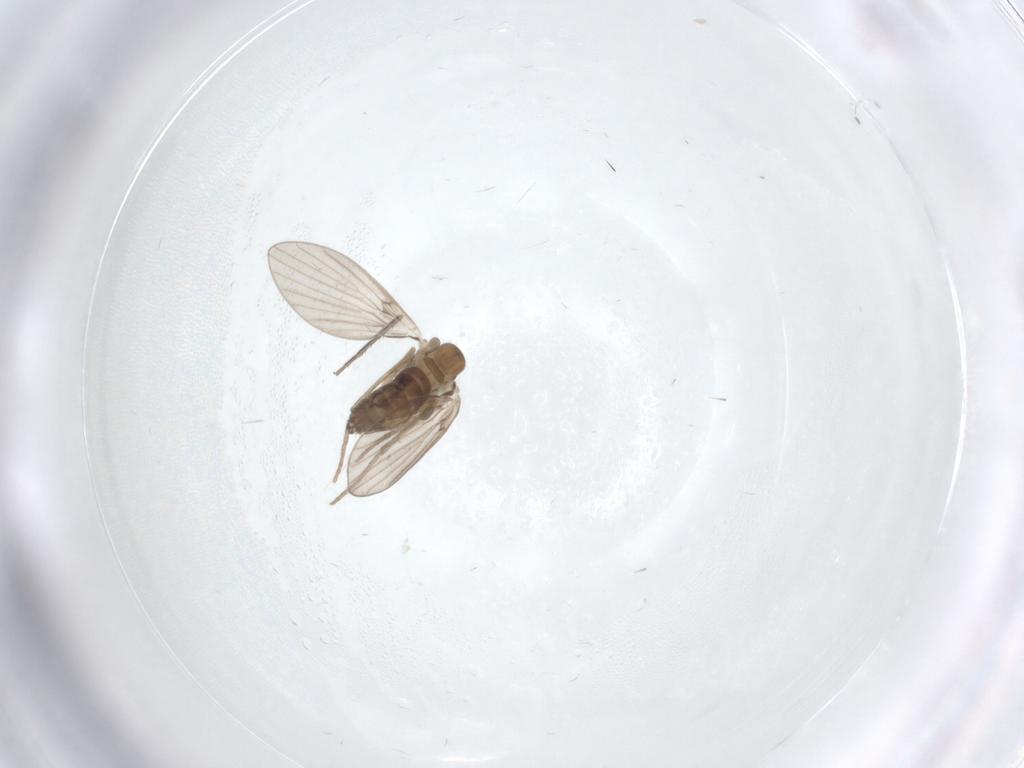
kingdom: Animalia
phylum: Arthropoda
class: Insecta
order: Diptera
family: Cecidomyiidae
